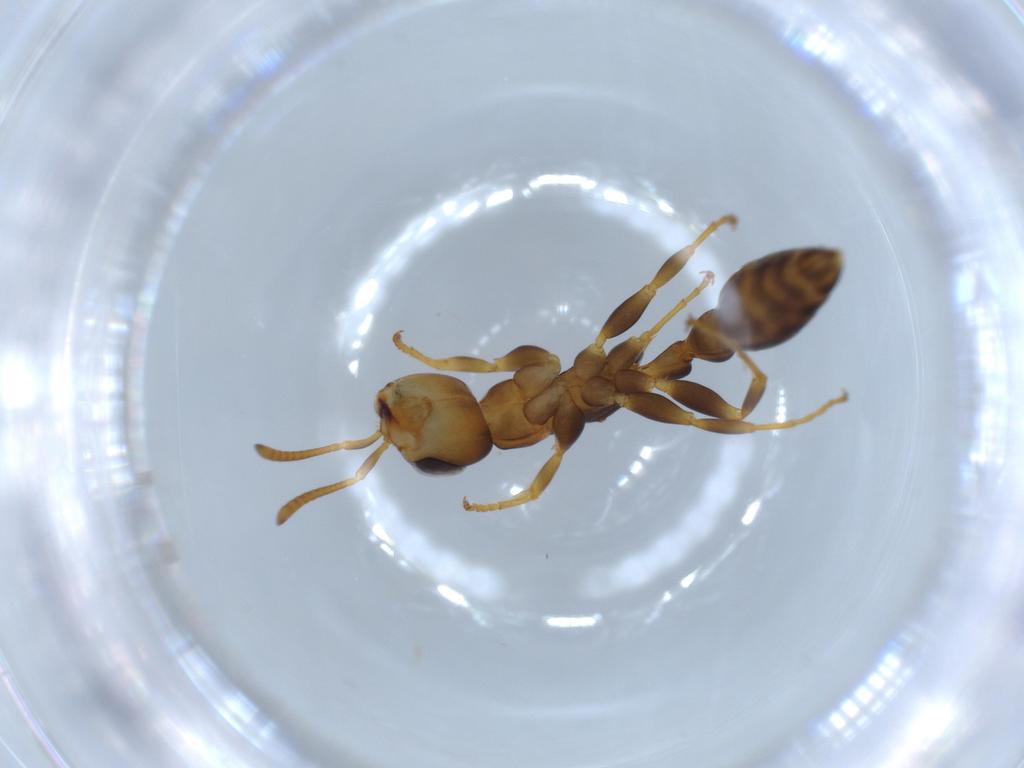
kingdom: Animalia
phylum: Arthropoda
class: Insecta
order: Hymenoptera
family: Formicidae
